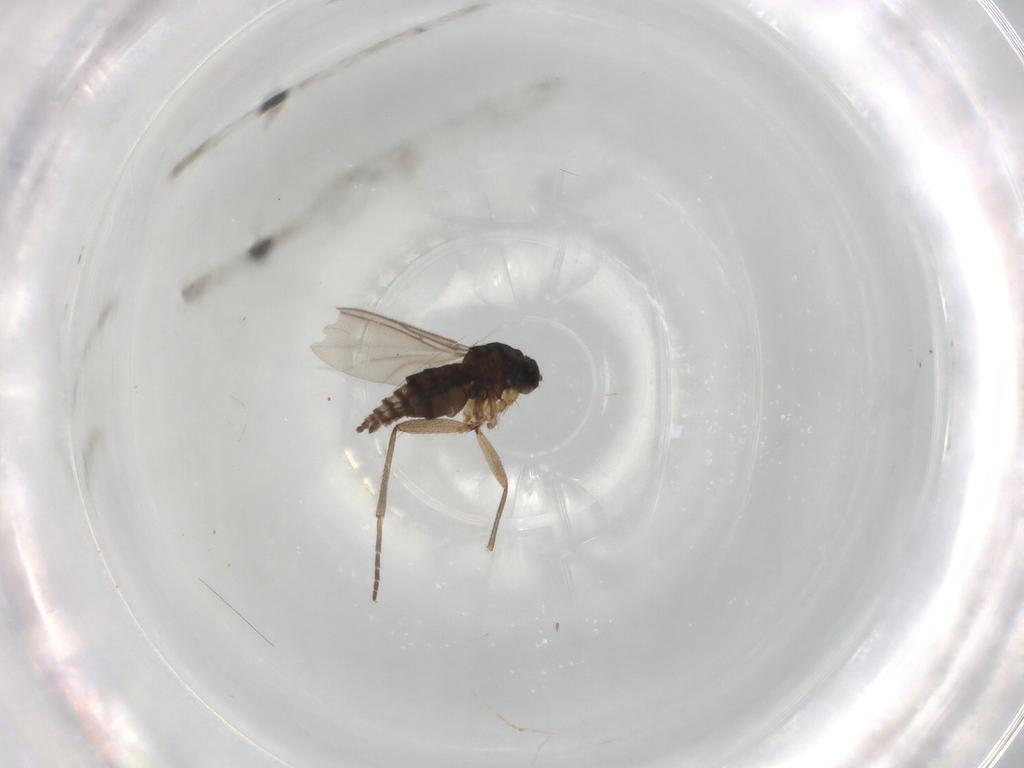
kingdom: Animalia
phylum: Arthropoda
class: Insecta
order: Diptera
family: Sciaridae
